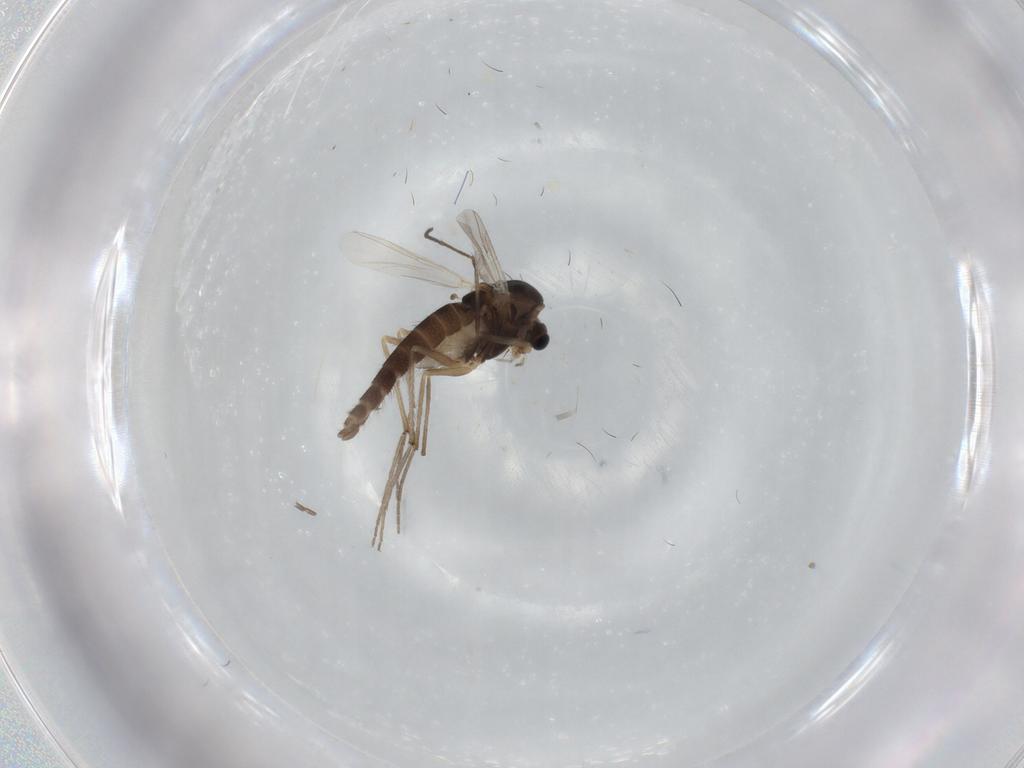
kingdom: Animalia
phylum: Arthropoda
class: Insecta
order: Diptera
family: Chironomidae
